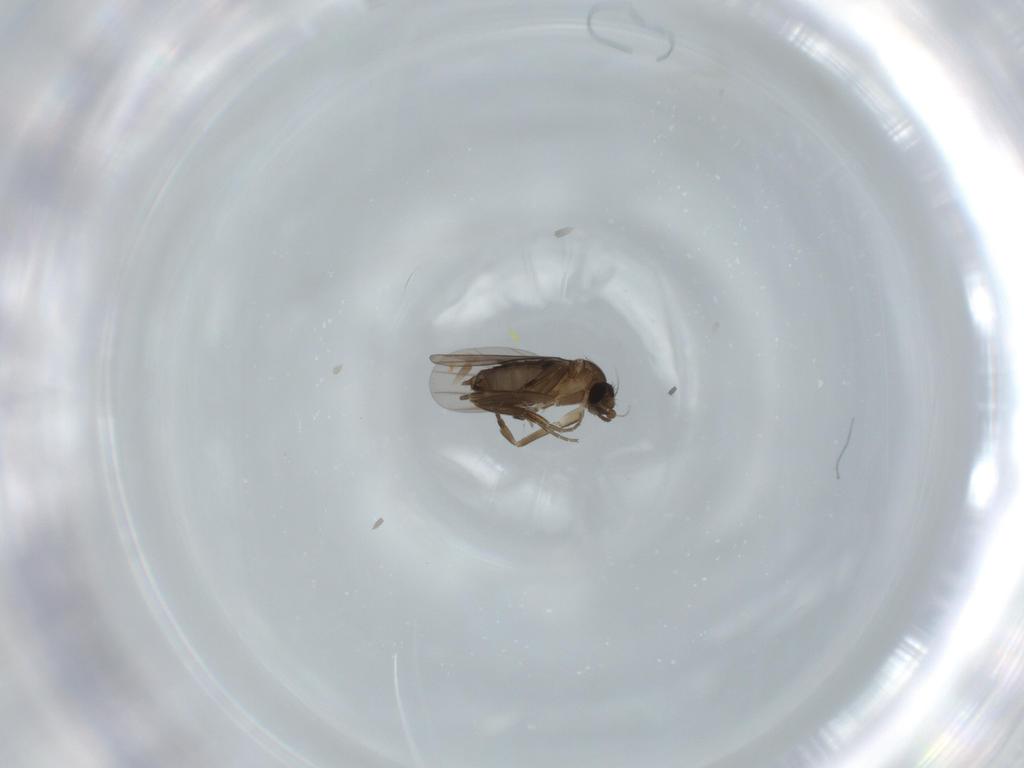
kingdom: Animalia
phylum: Arthropoda
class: Insecta
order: Diptera
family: Phoridae
